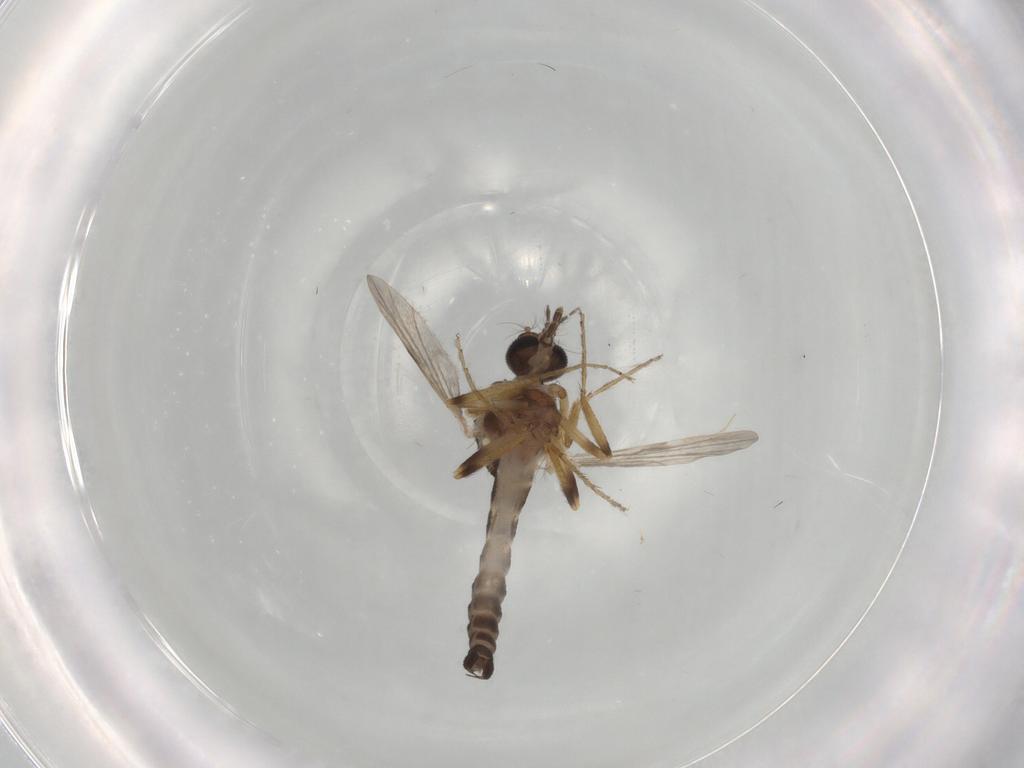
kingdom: Animalia
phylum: Arthropoda
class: Insecta
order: Diptera
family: Ceratopogonidae
